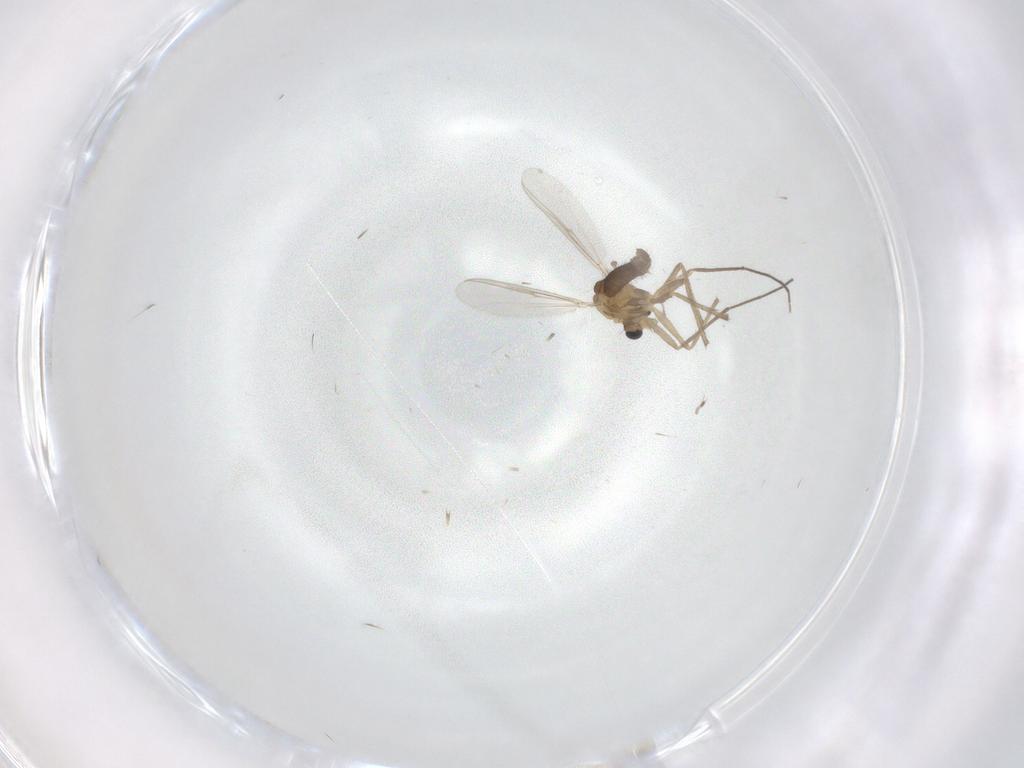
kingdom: Animalia
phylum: Arthropoda
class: Insecta
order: Diptera
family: Chironomidae
